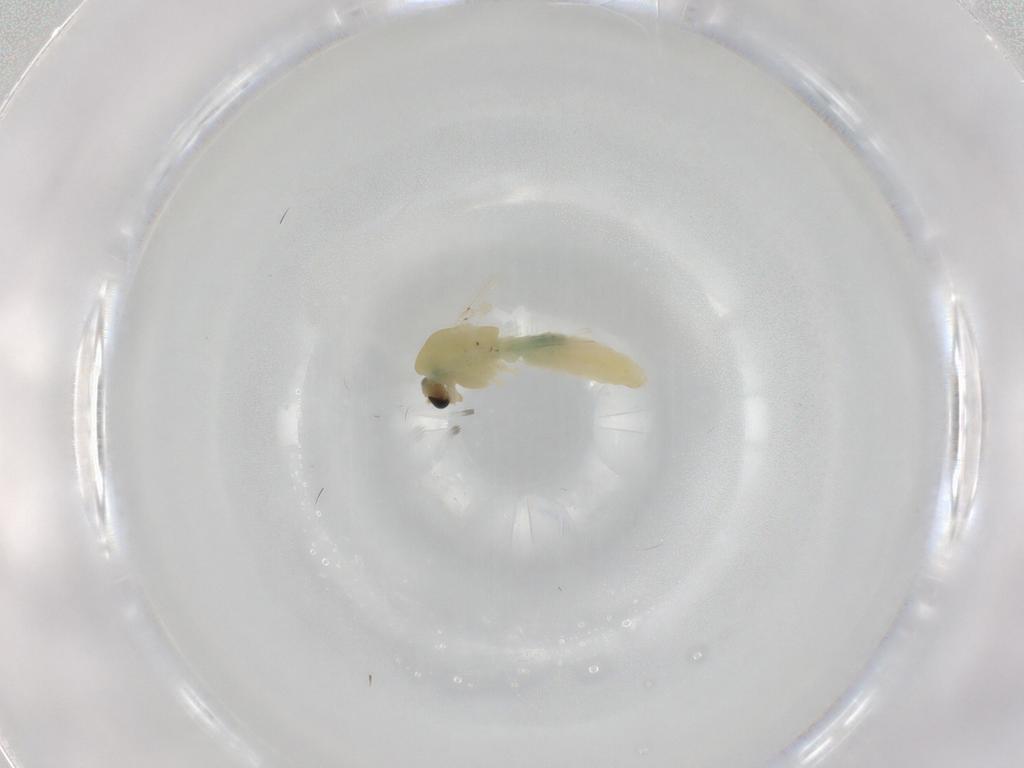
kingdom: Animalia
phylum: Arthropoda
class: Insecta
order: Diptera
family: Chironomidae
